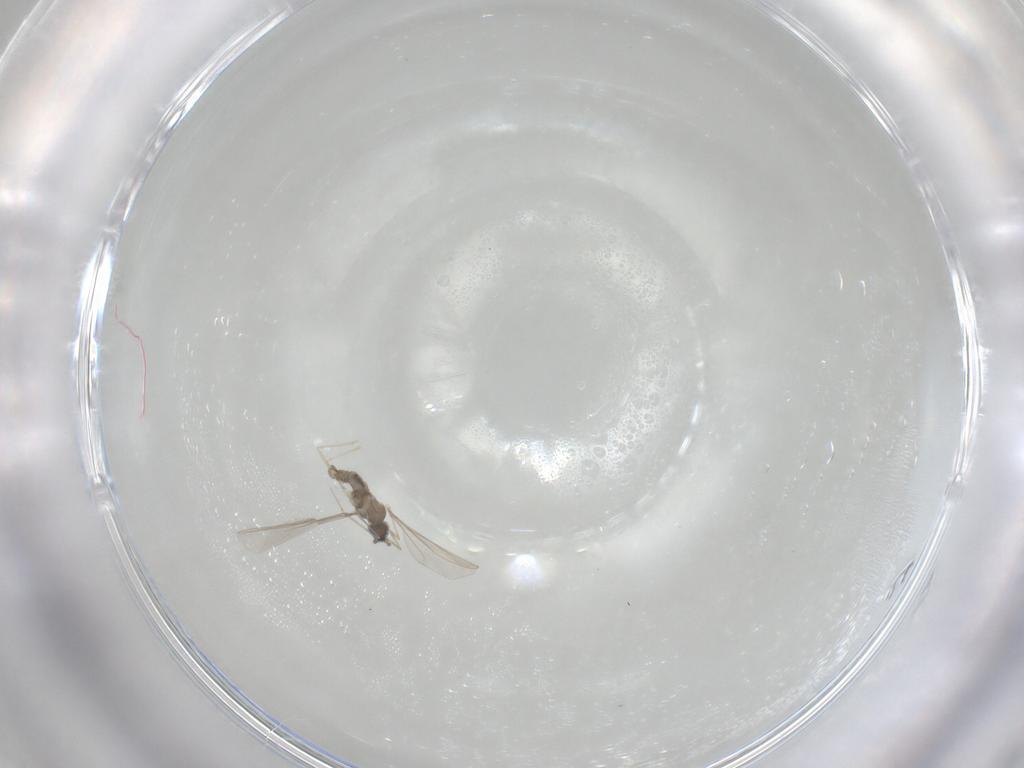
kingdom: Animalia
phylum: Arthropoda
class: Insecta
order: Diptera
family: Cecidomyiidae
